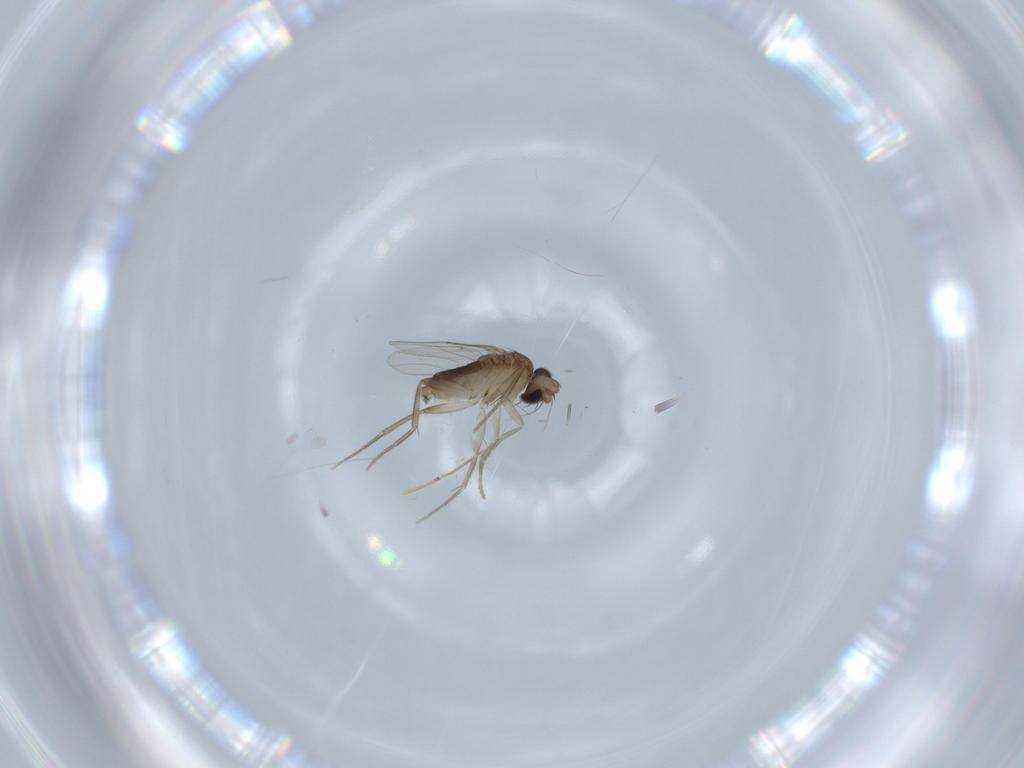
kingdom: Animalia
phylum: Arthropoda
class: Insecta
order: Diptera
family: Phoridae
